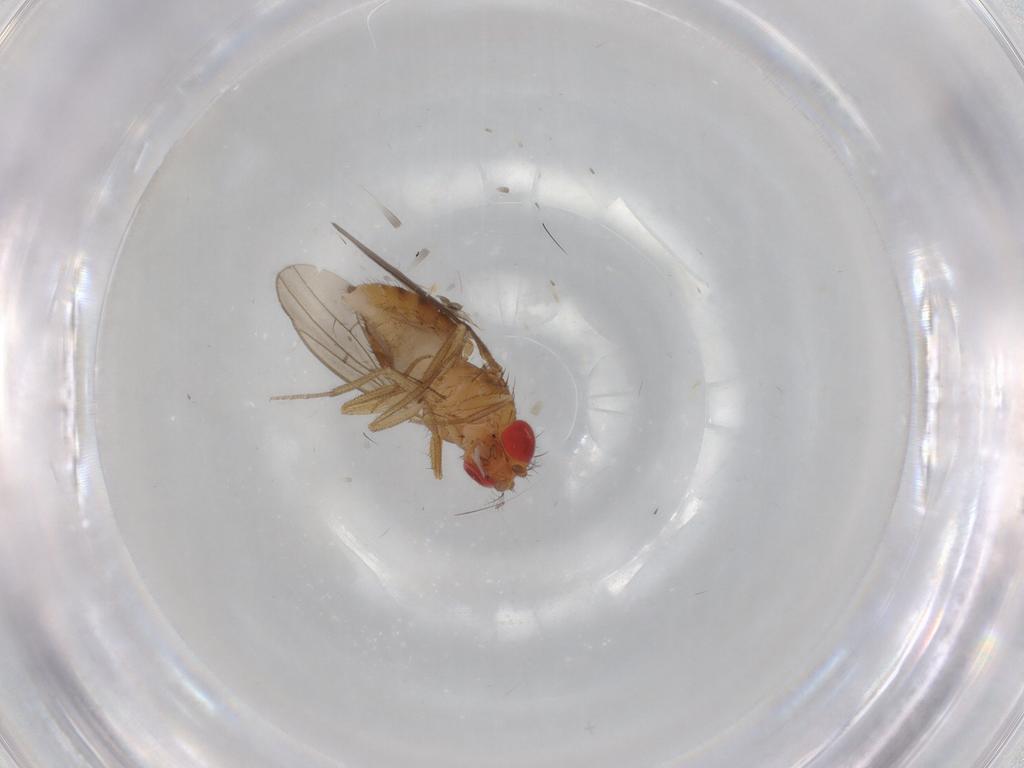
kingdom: Animalia
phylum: Arthropoda
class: Insecta
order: Diptera
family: Drosophilidae
